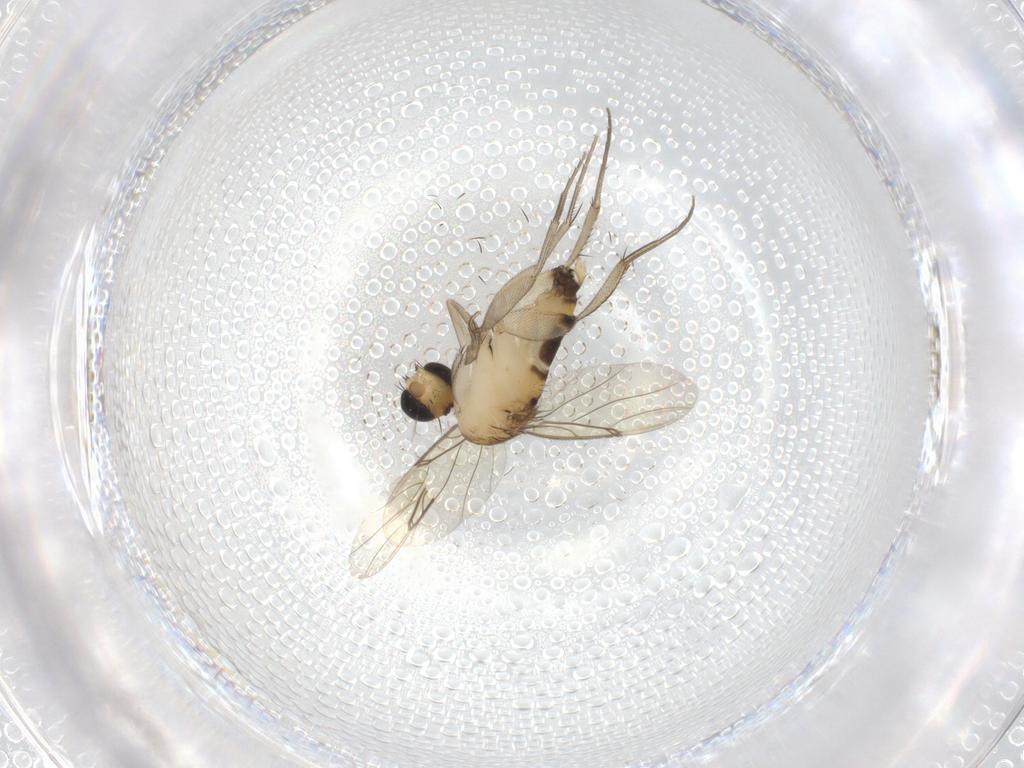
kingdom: Animalia
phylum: Arthropoda
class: Insecta
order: Diptera
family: Phoridae
